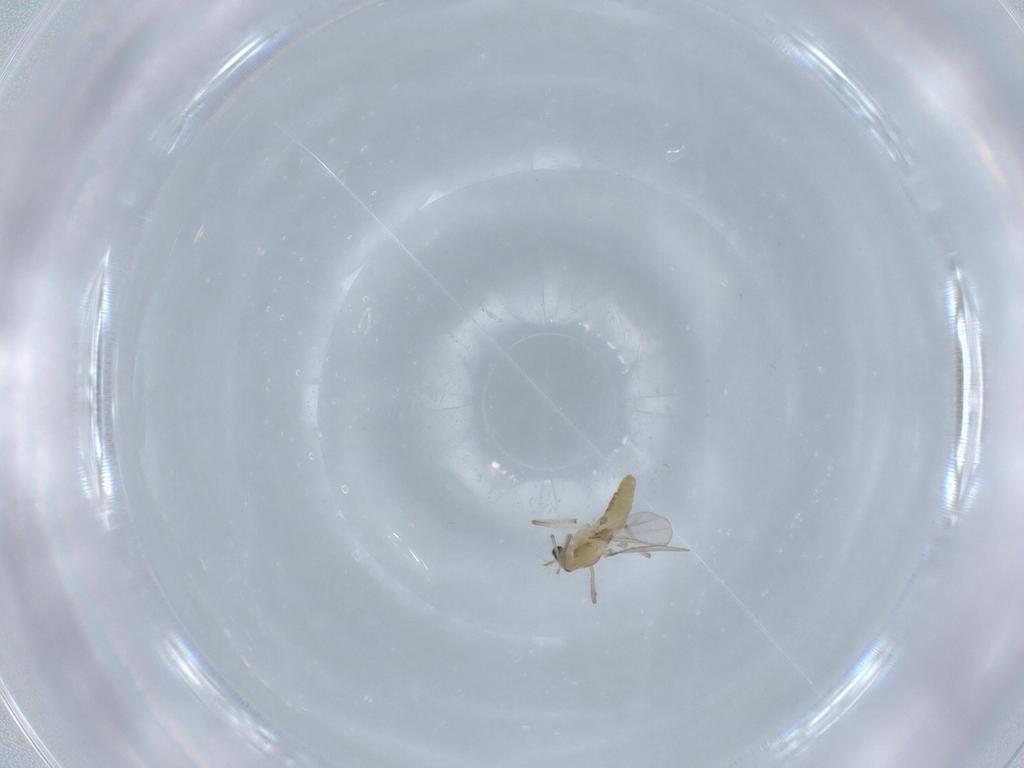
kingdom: Animalia
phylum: Arthropoda
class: Insecta
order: Diptera
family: Chironomidae
